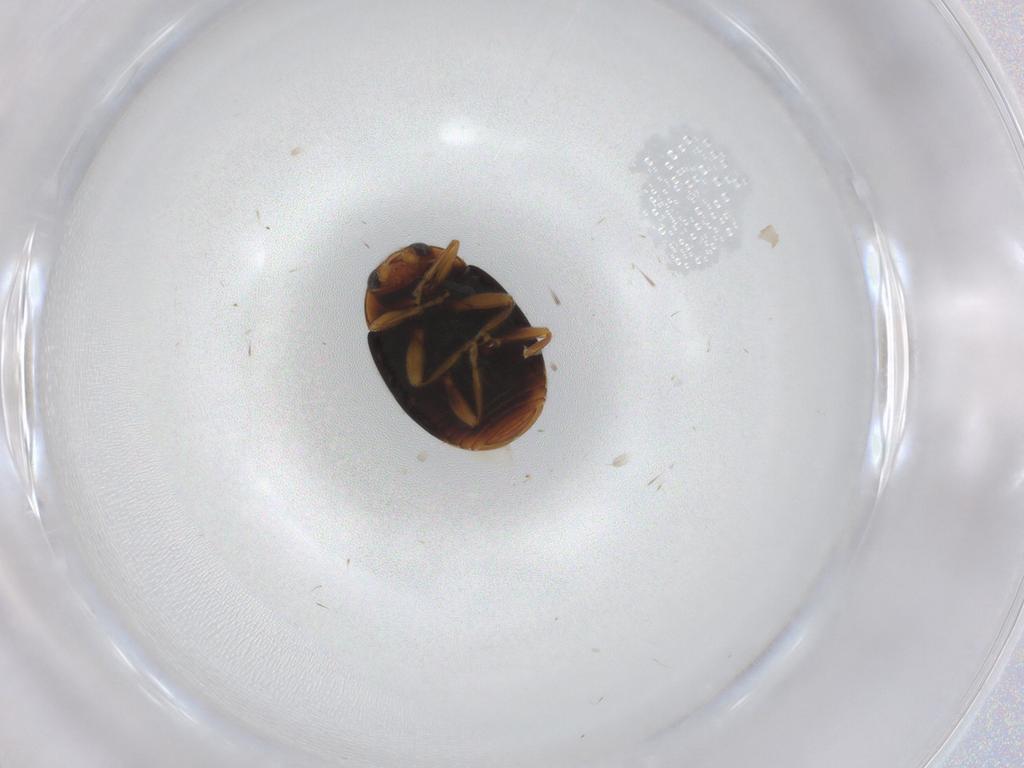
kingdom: Animalia
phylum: Arthropoda
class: Insecta
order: Coleoptera
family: Coccinellidae
